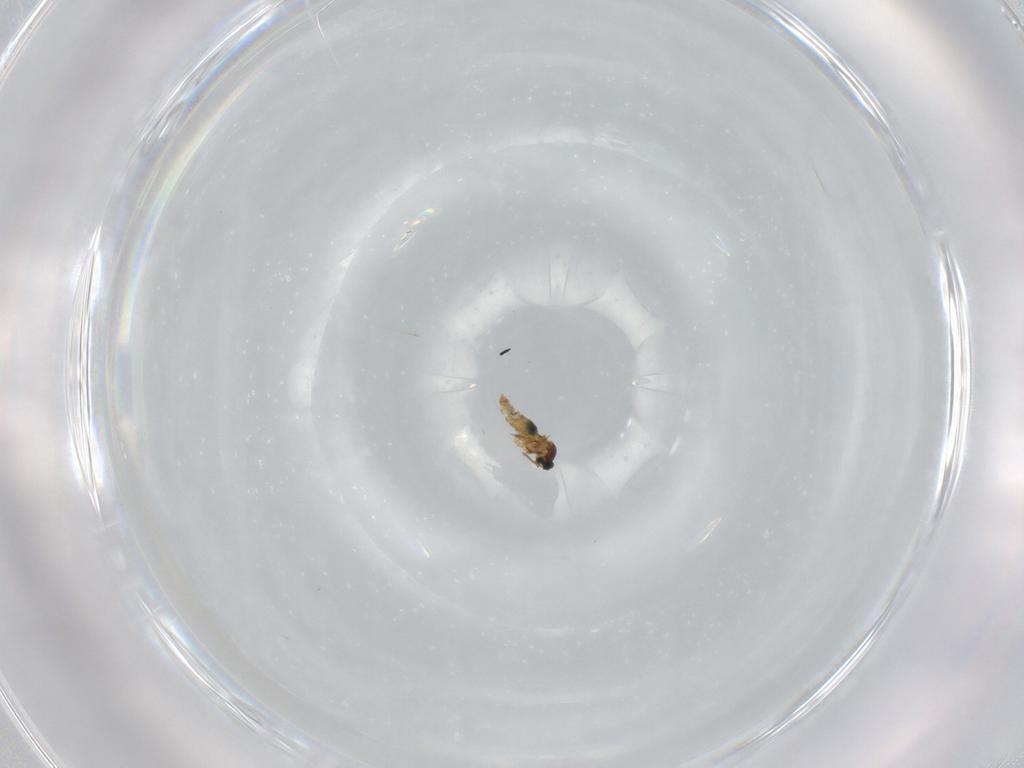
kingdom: Animalia
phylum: Arthropoda
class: Insecta
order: Diptera
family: Cecidomyiidae
